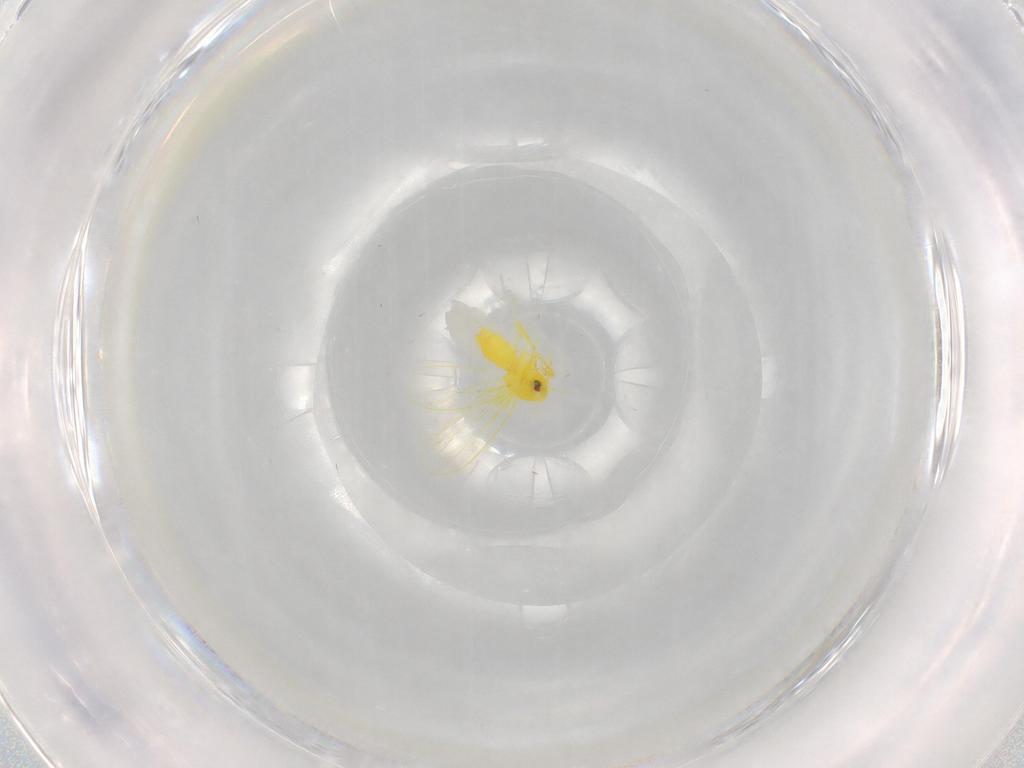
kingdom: Animalia
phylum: Arthropoda
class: Insecta
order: Hemiptera
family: Aleyrodidae
